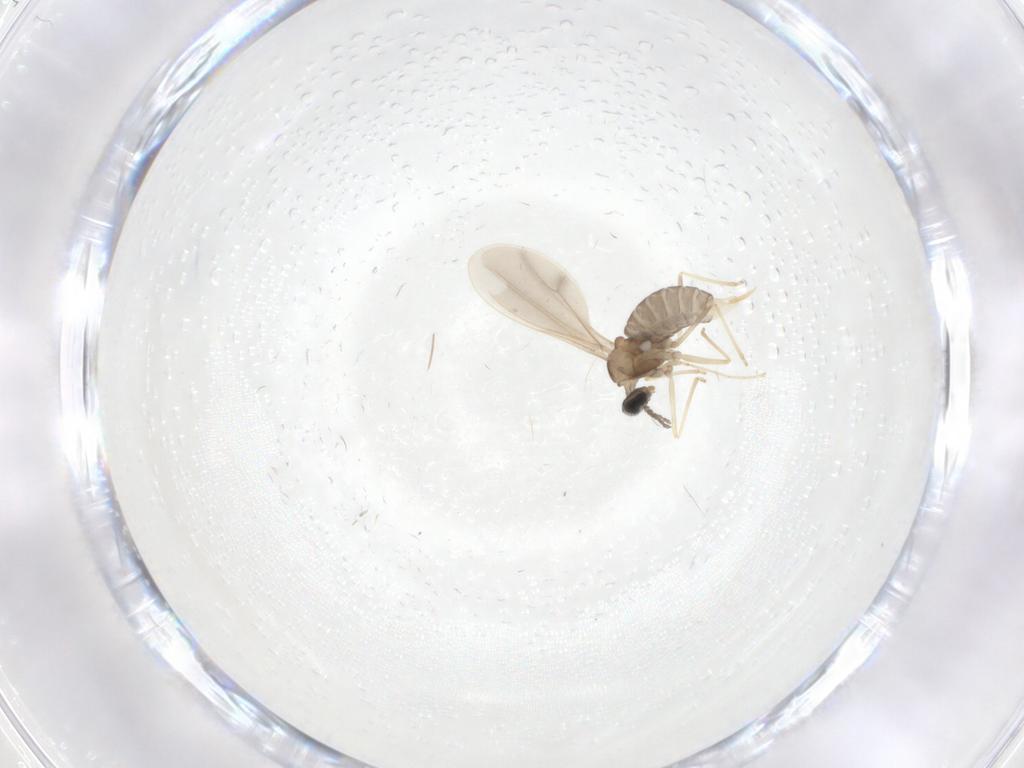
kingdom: Animalia
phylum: Arthropoda
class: Insecta
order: Diptera
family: Cecidomyiidae
